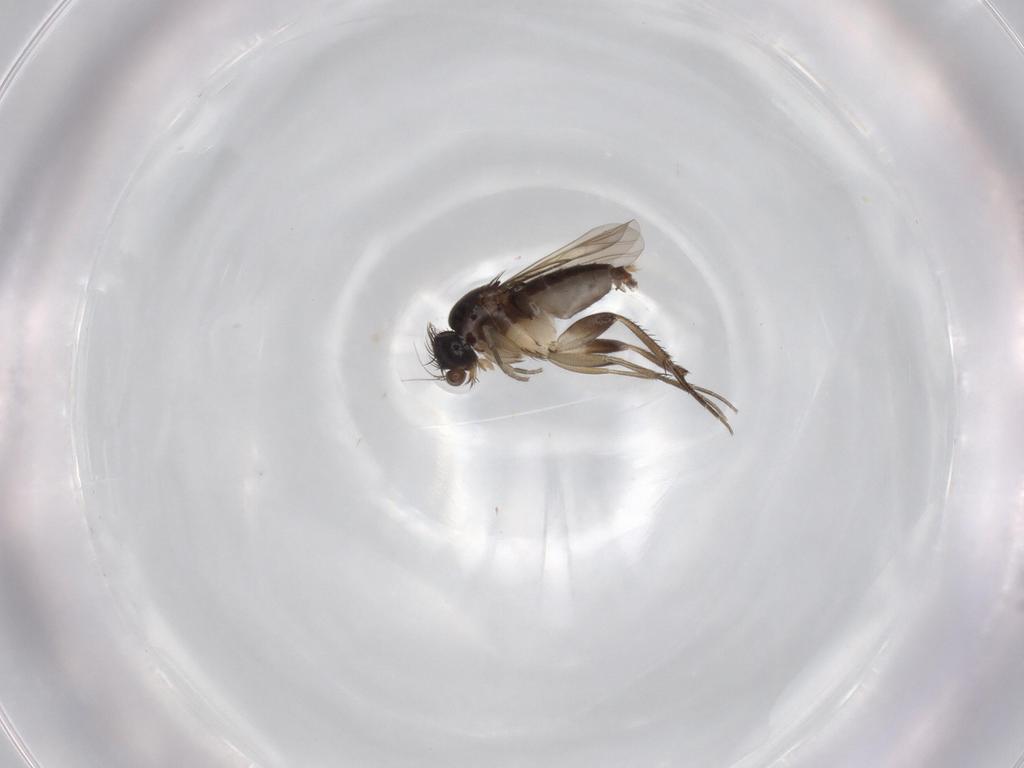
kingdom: Animalia
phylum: Arthropoda
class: Insecta
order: Diptera
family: Phoridae
